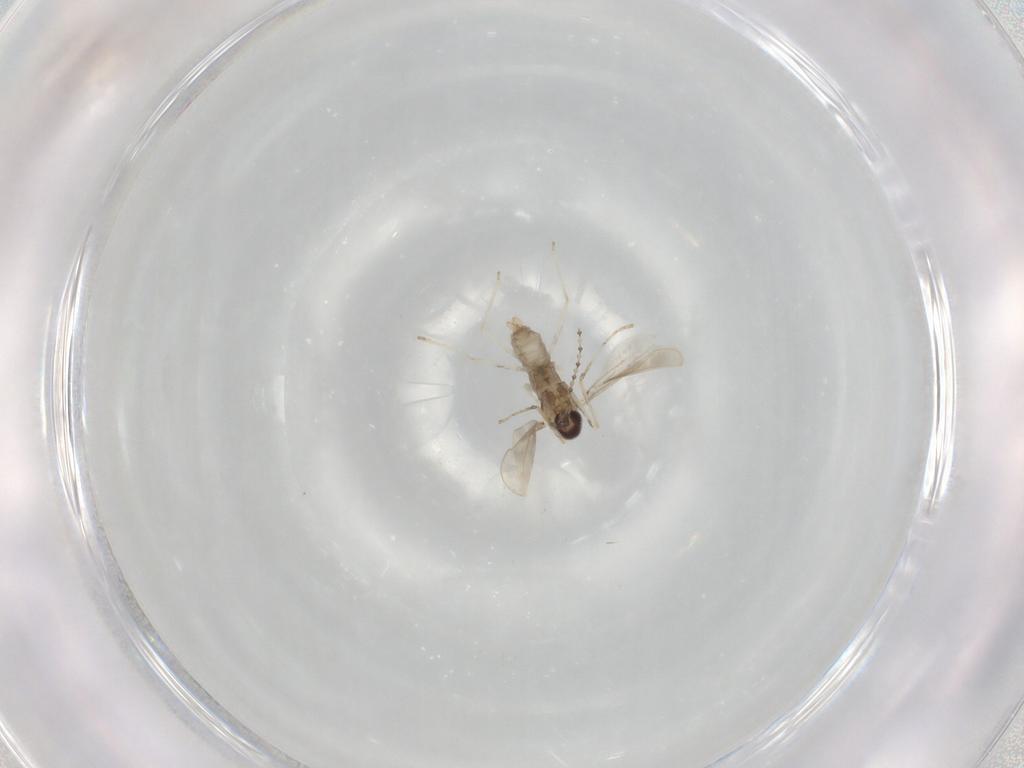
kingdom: Animalia
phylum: Arthropoda
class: Insecta
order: Diptera
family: Cecidomyiidae
